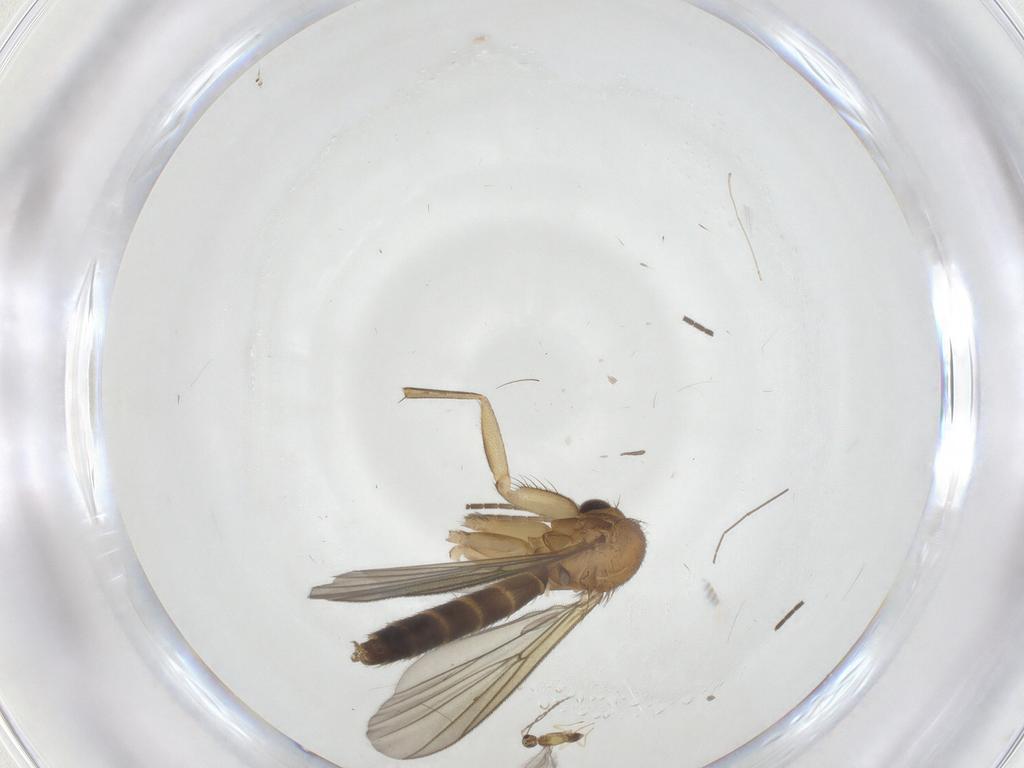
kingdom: Animalia
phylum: Arthropoda
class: Insecta
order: Diptera
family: Mycetophilidae
